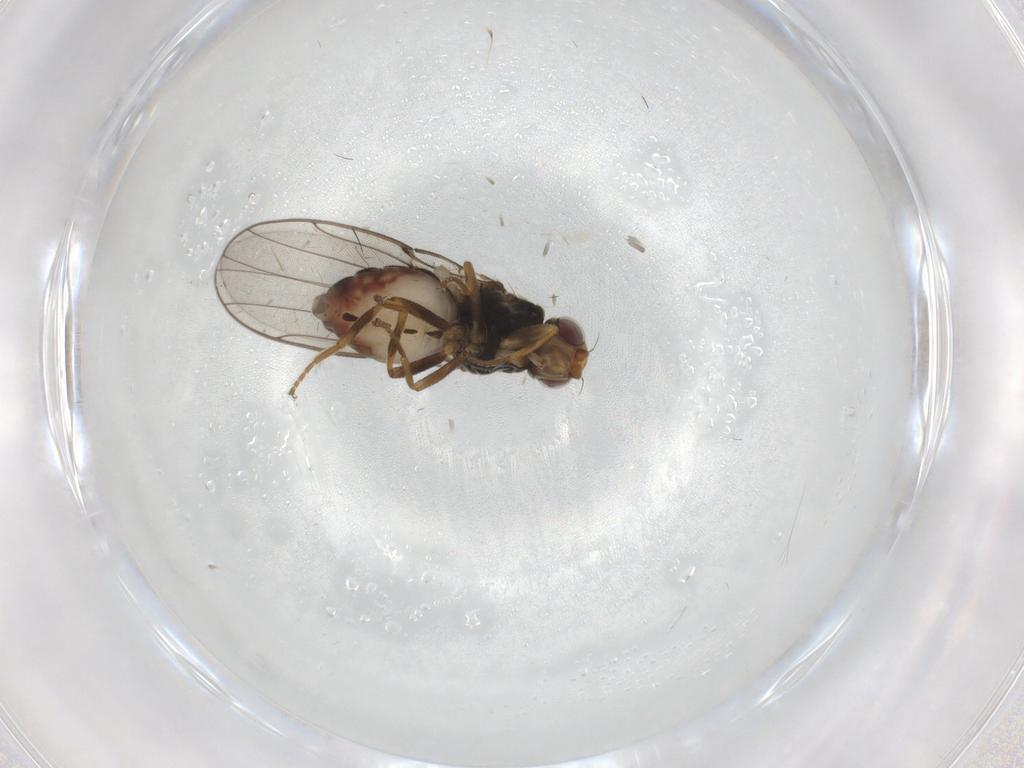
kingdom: Animalia
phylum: Arthropoda
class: Insecta
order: Diptera
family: Chloropidae
